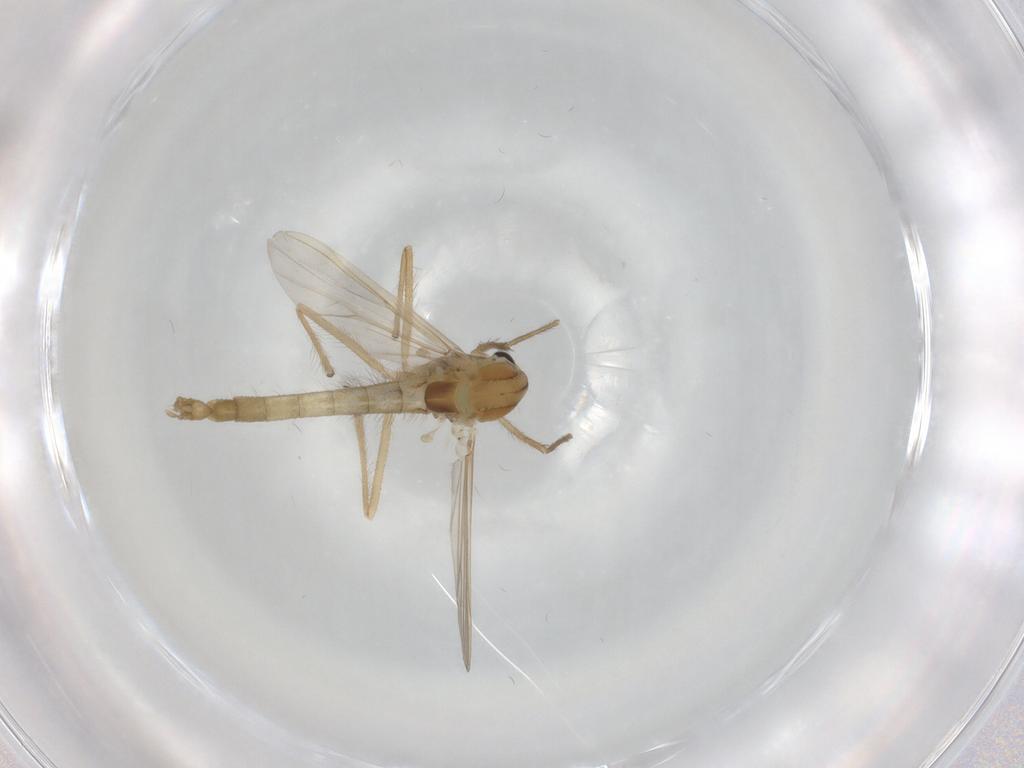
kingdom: Animalia
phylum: Arthropoda
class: Insecta
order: Diptera
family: Chironomidae
